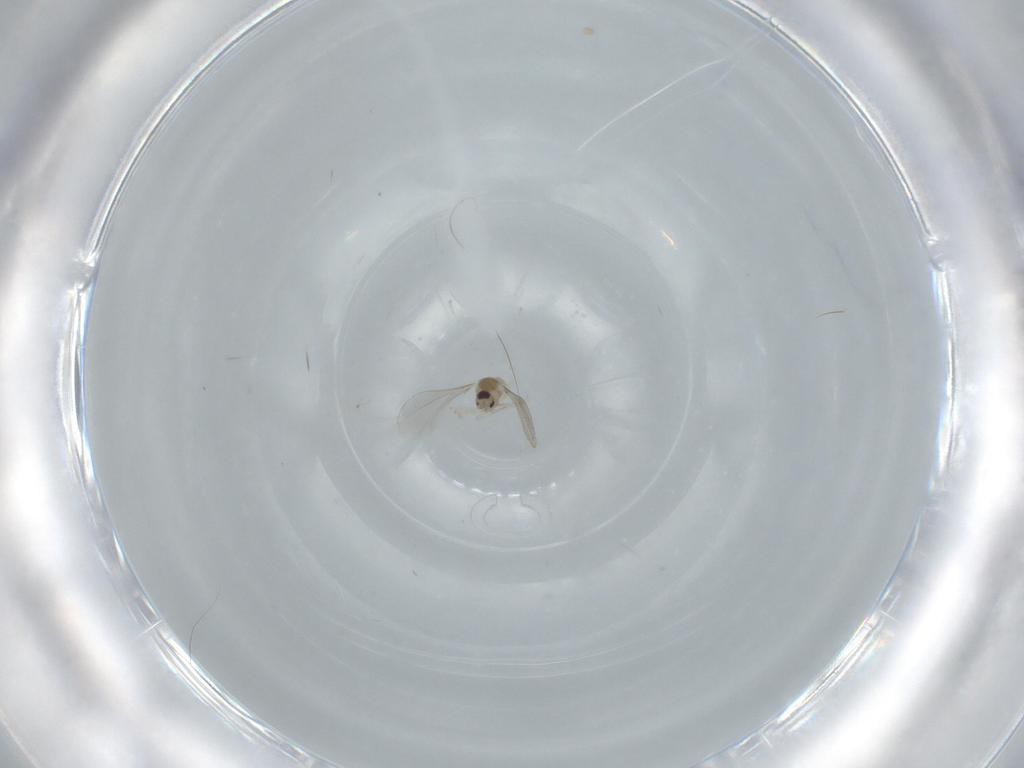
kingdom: Animalia
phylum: Arthropoda
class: Insecta
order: Diptera
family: Cecidomyiidae
